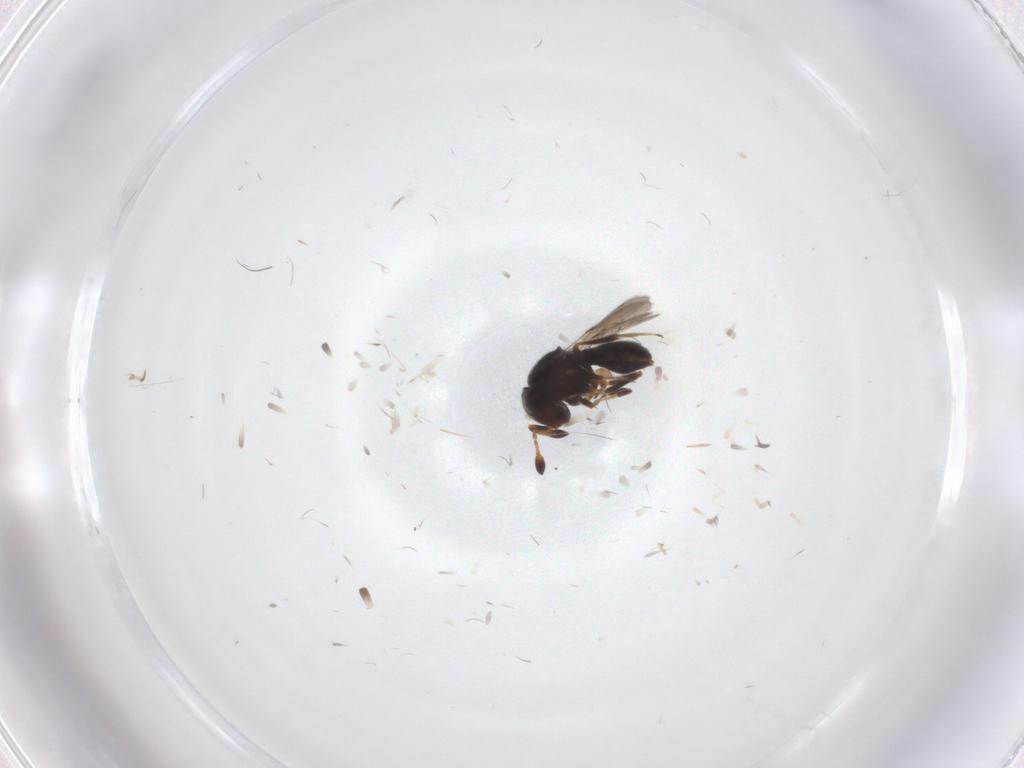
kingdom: Animalia
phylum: Arthropoda
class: Insecta
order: Hymenoptera
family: Scelionidae
